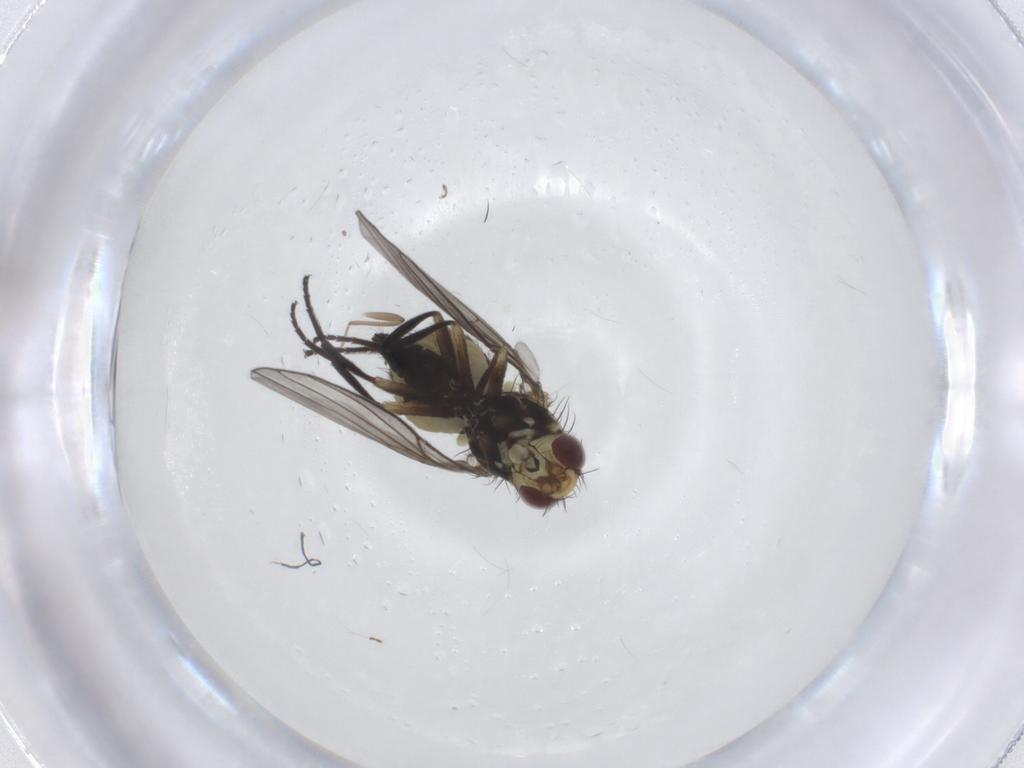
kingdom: Animalia
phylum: Arthropoda
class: Insecta
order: Diptera
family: Agromyzidae
